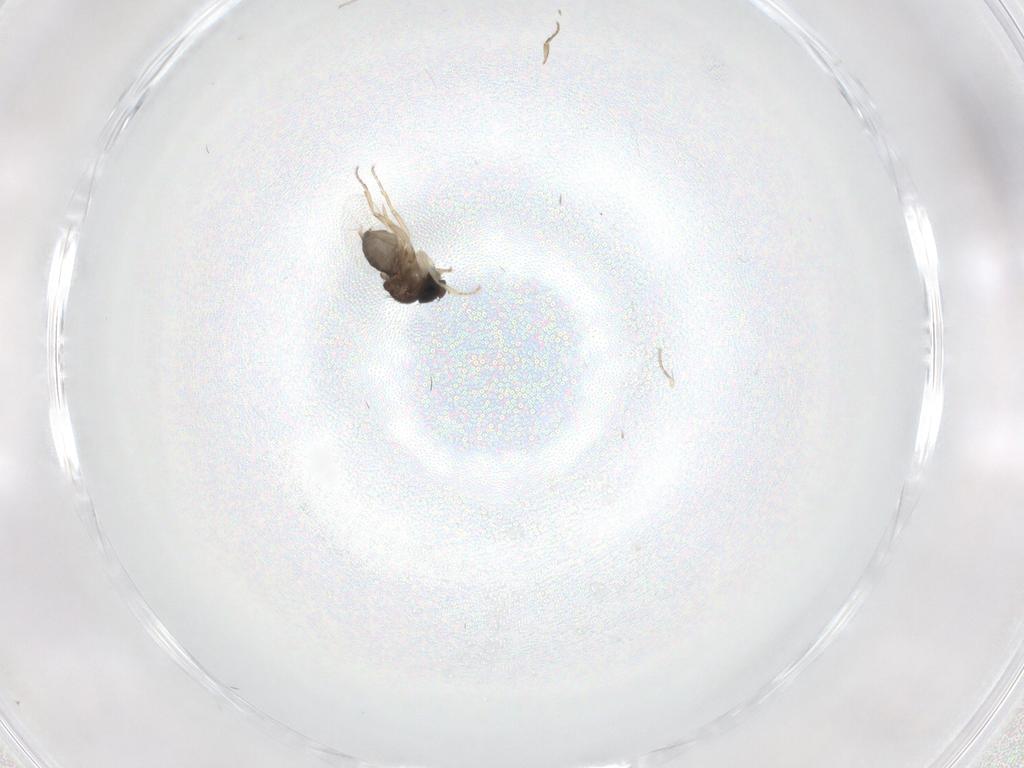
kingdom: Animalia
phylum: Arthropoda
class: Insecta
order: Diptera
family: Phoridae
